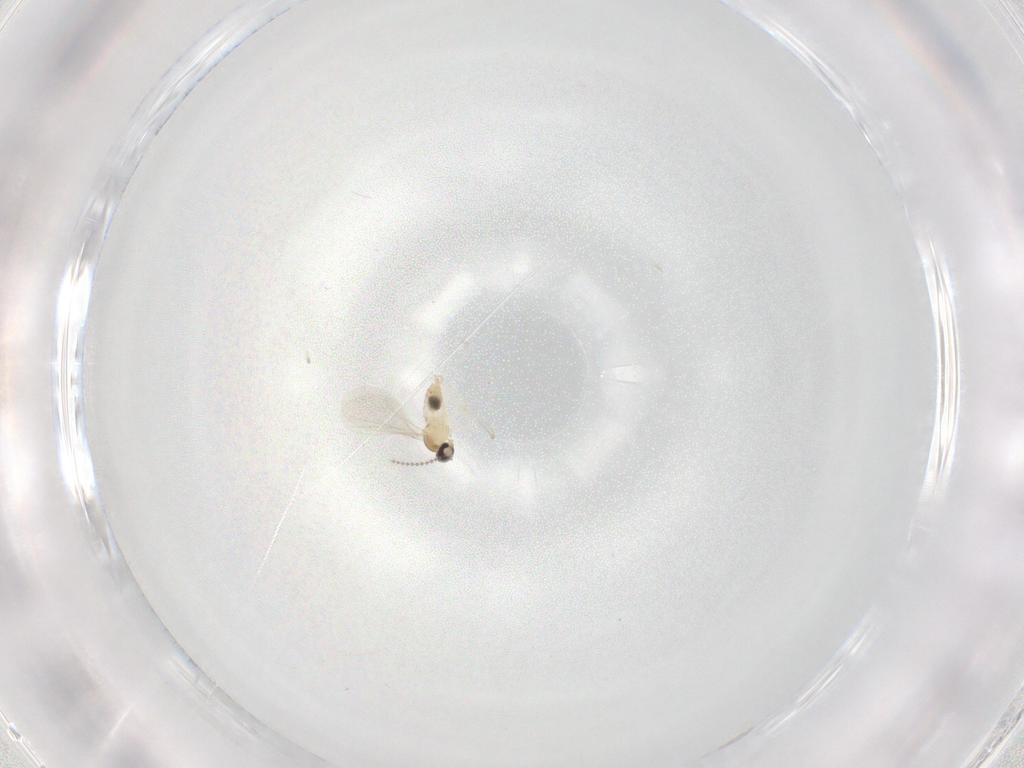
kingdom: Animalia
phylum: Arthropoda
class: Insecta
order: Diptera
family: Cecidomyiidae
